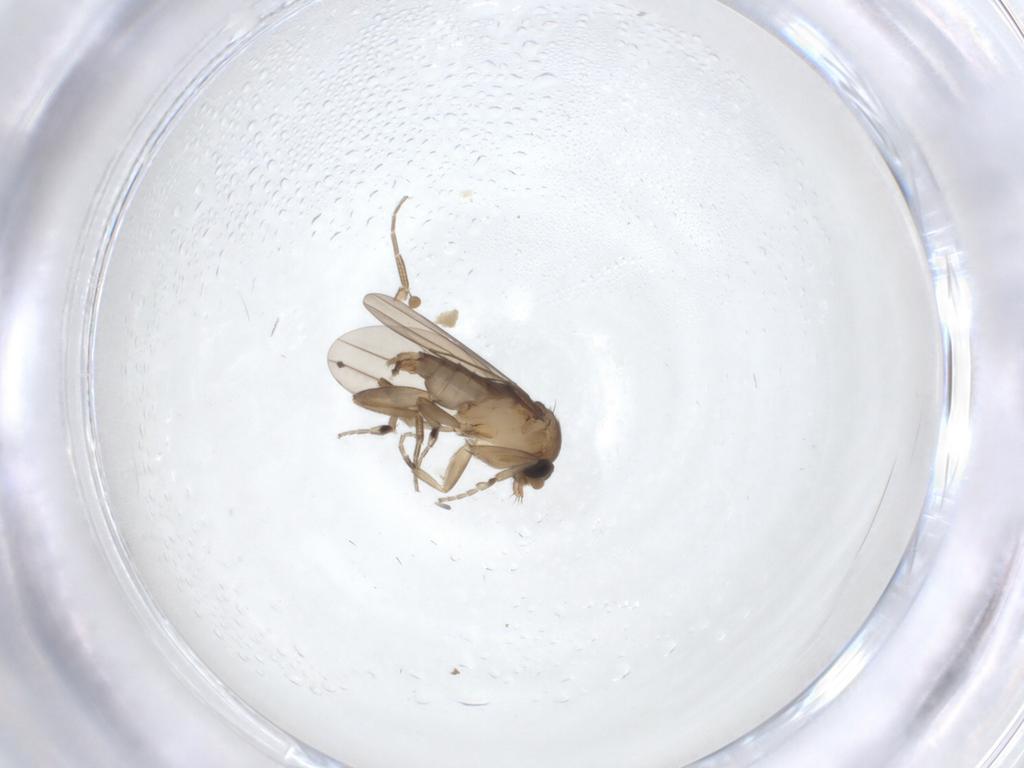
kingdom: Animalia
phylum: Arthropoda
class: Insecta
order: Diptera
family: Chironomidae
